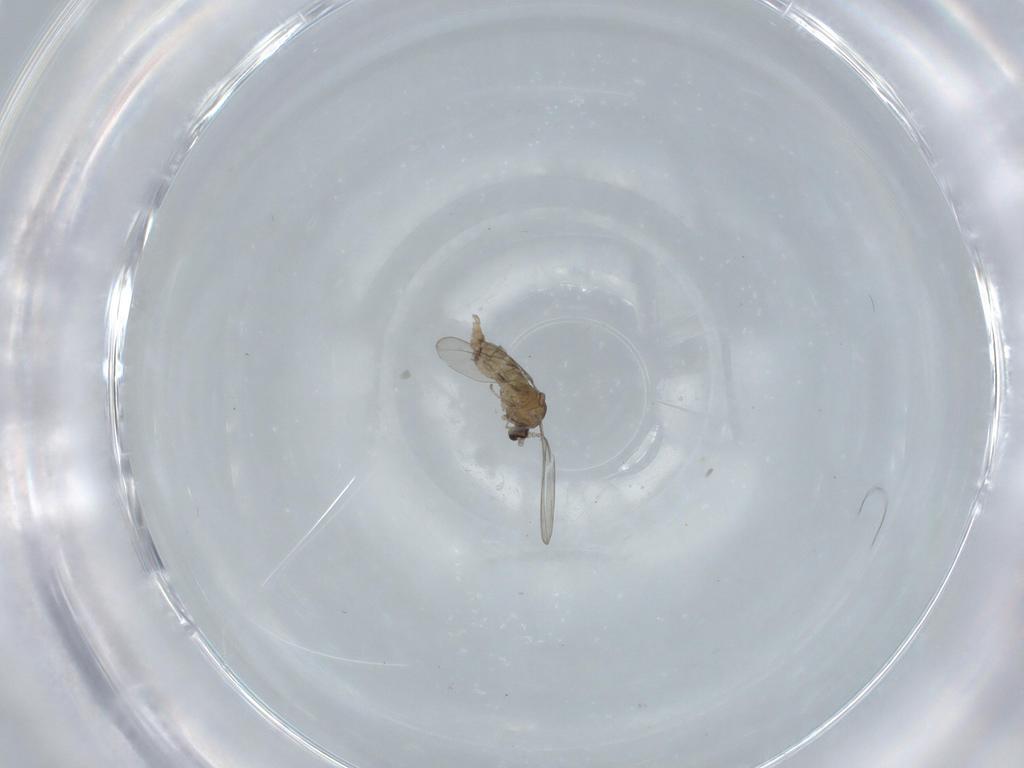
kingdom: Animalia
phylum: Arthropoda
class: Insecta
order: Diptera
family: Cecidomyiidae
